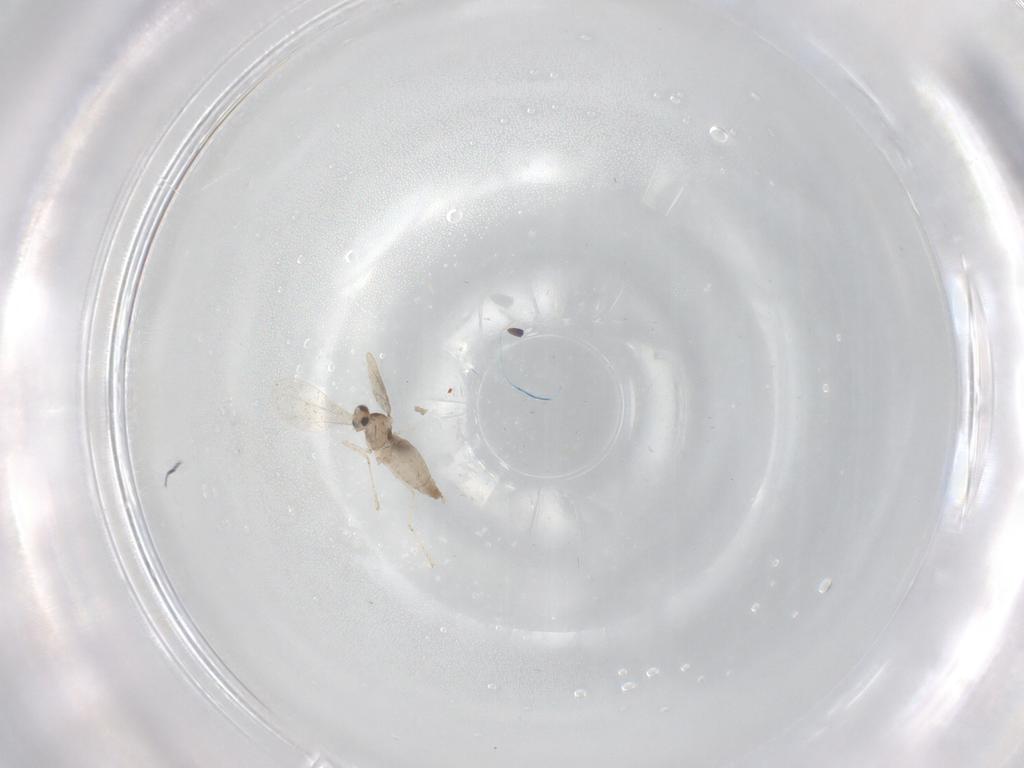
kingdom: Animalia
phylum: Arthropoda
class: Insecta
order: Diptera
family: Cecidomyiidae
